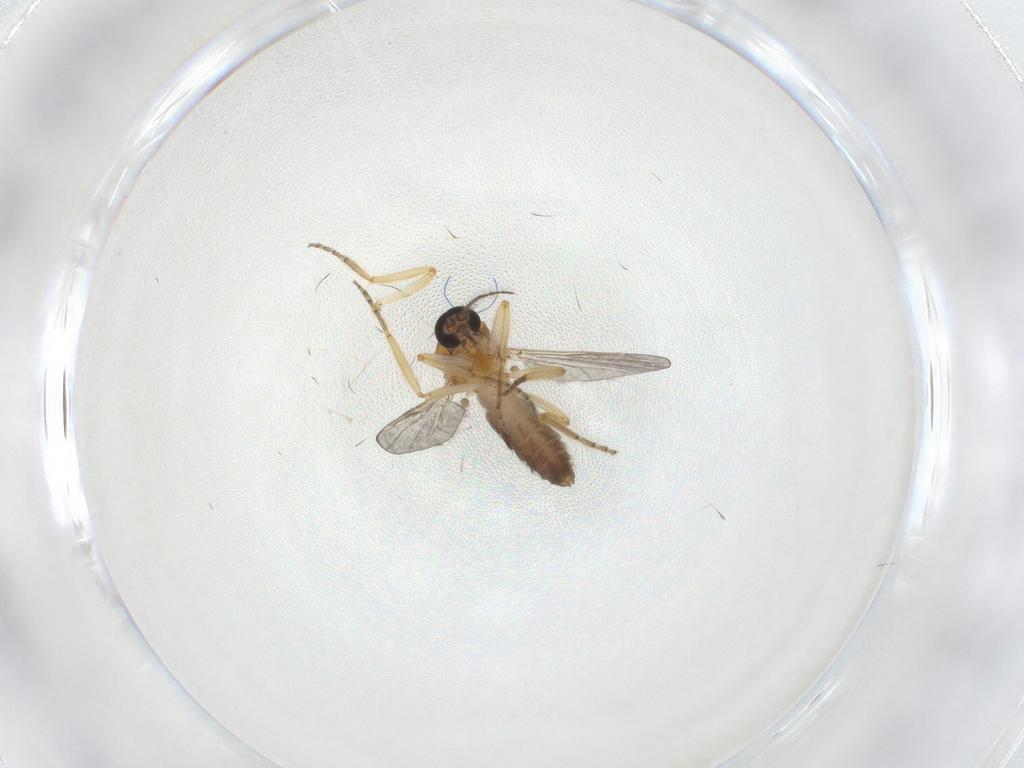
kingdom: Animalia
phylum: Arthropoda
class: Insecta
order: Diptera
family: Ceratopogonidae
